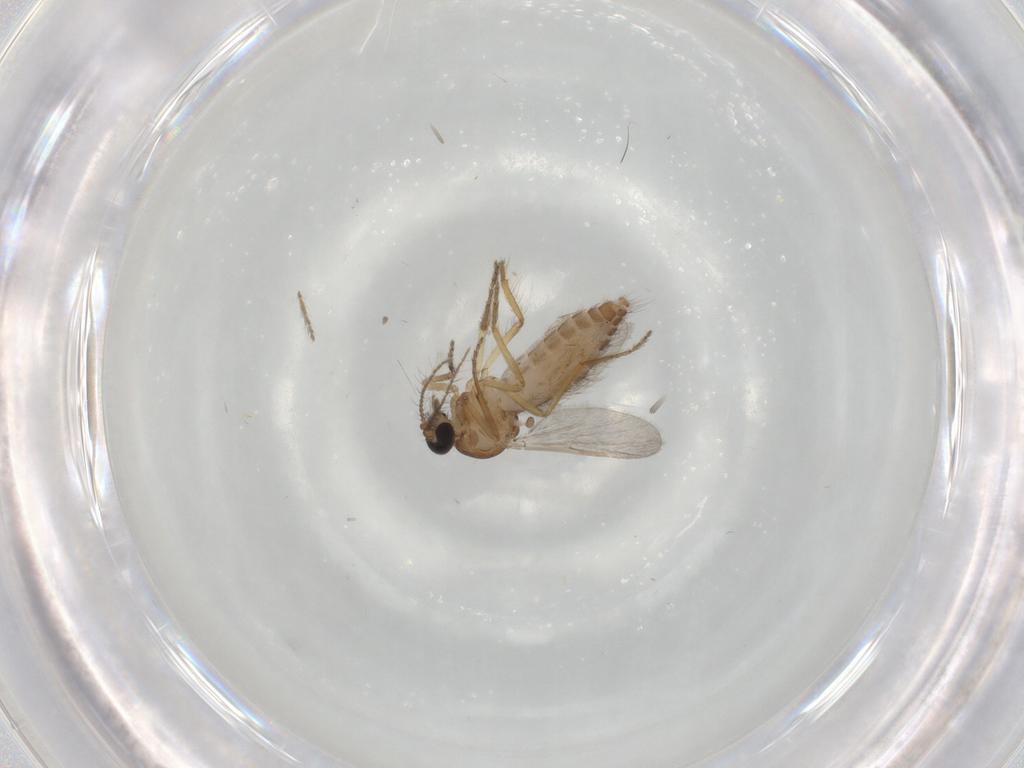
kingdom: Animalia
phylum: Arthropoda
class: Insecta
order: Diptera
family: Ceratopogonidae
